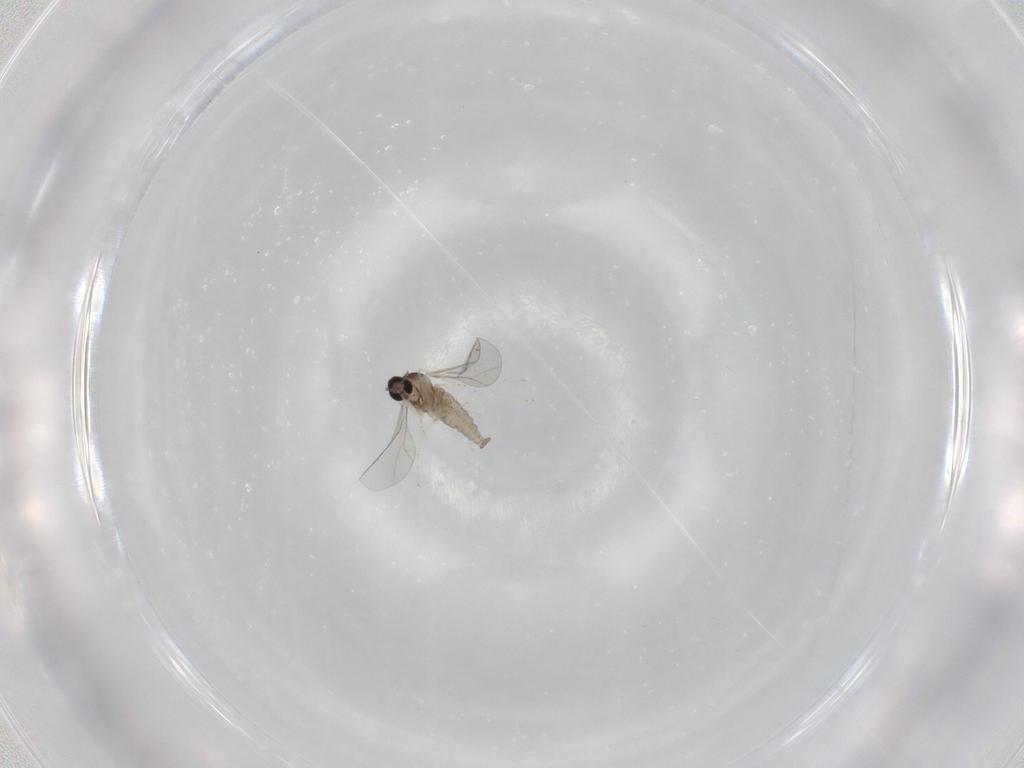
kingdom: Animalia
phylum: Arthropoda
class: Insecta
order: Diptera
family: Cecidomyiidae
